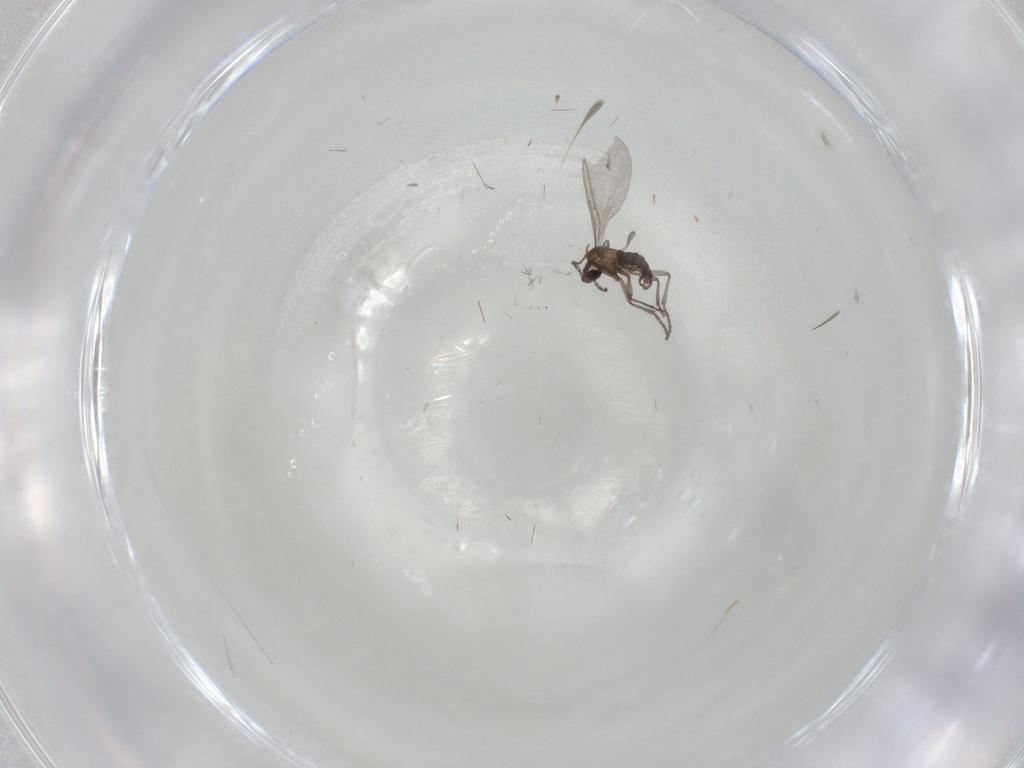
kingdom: Animalia
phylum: Arthropoda
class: Insecta
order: Diptera
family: Sciaridae
